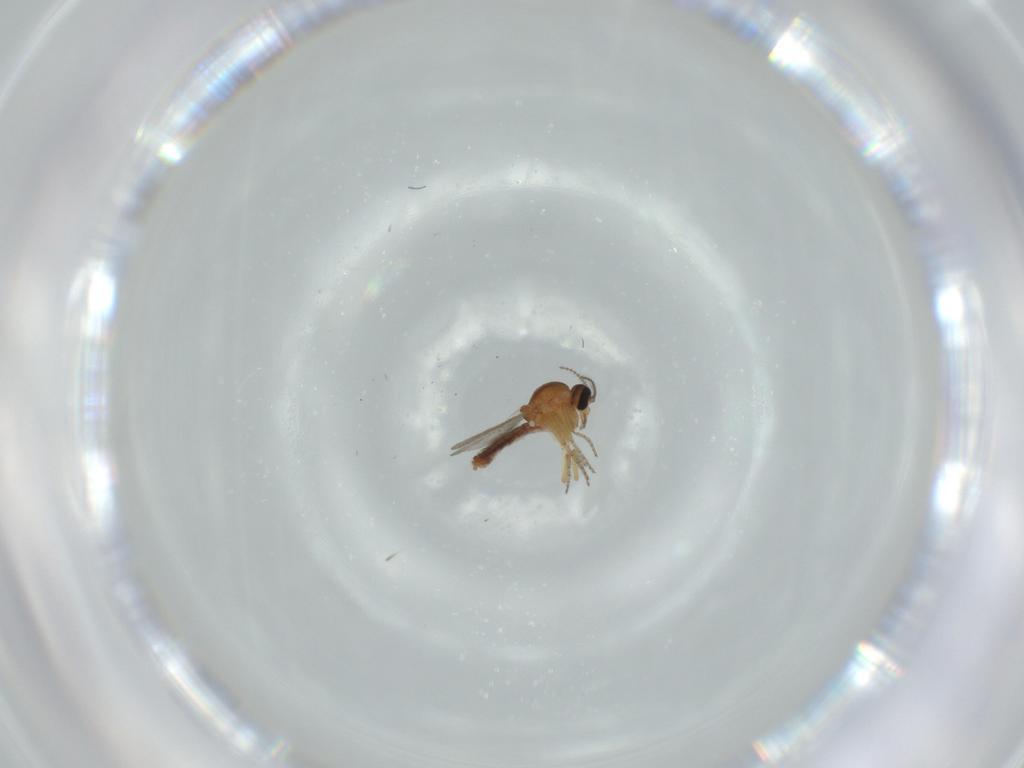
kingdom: Animalia
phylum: Arthropoda
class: Insecta
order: Diptera
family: Ceratopogonidae
